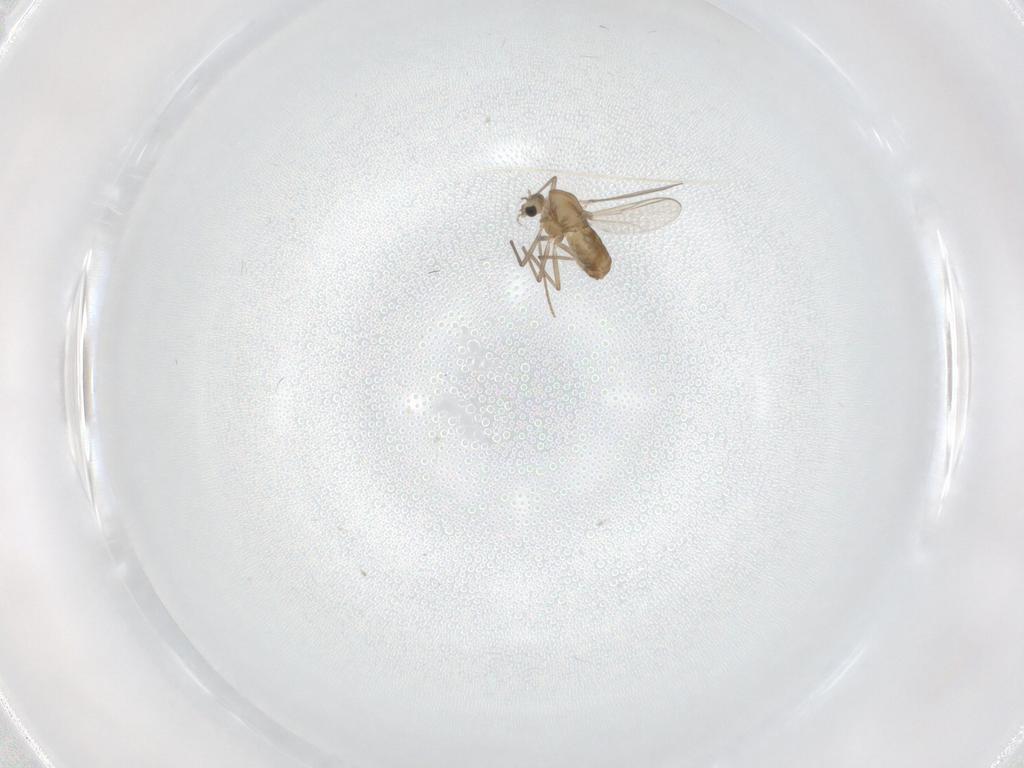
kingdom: Animalia
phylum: Arthropoda
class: Insecta
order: Diptera
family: Chironomidae
